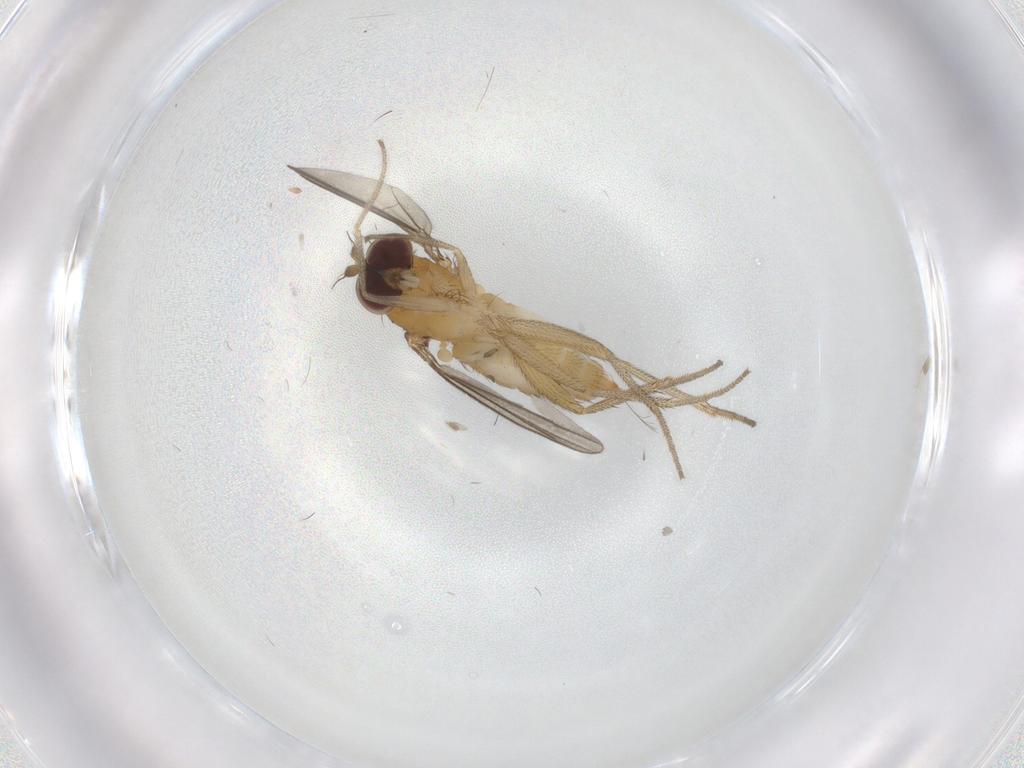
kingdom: Animalia
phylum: Arthropoda
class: Insecta
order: Diptera
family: Dolichopodidae
